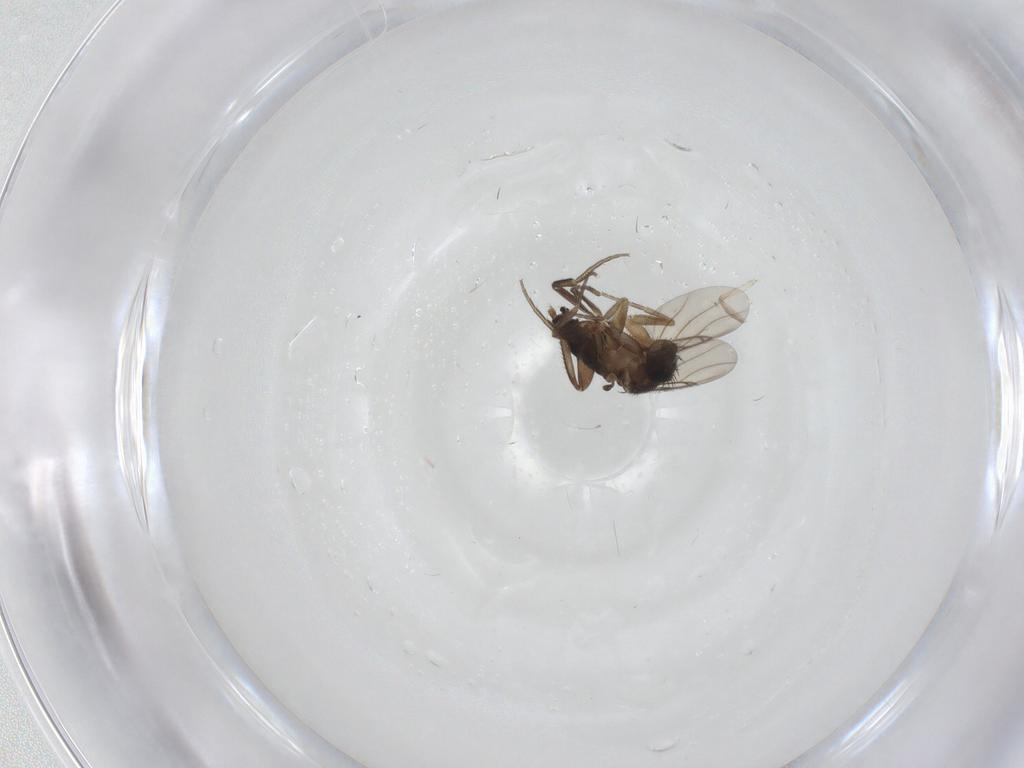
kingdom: Animalia
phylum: Arthropoda
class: Insecta
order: Diptera
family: Phoridae
